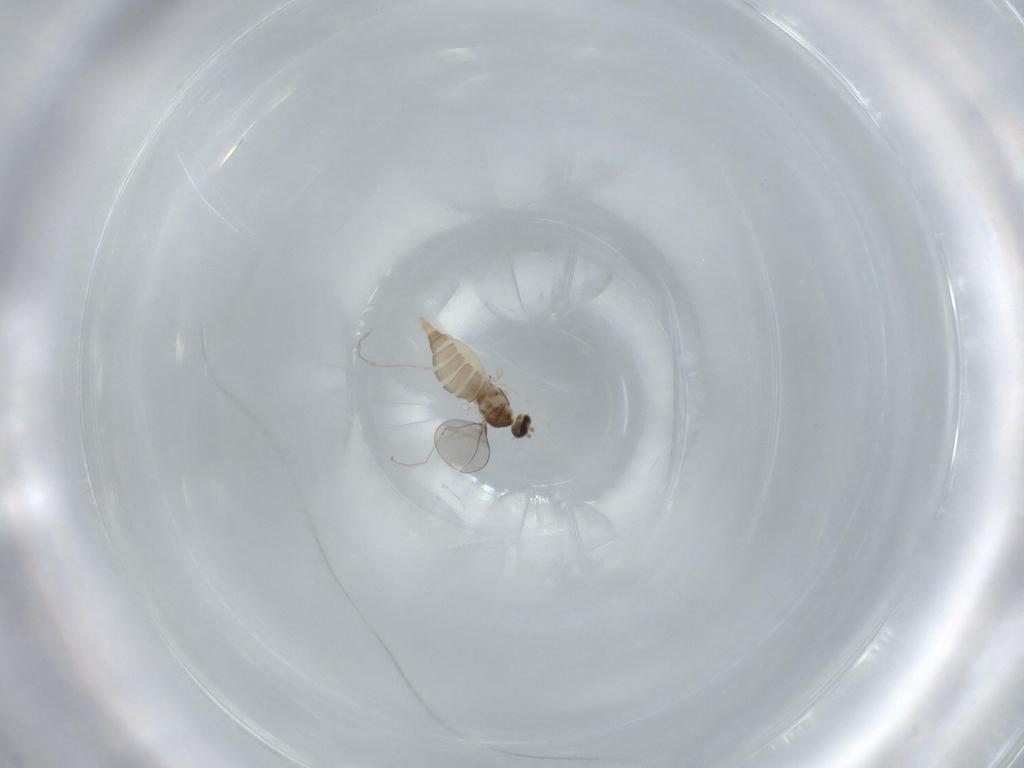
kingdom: Animalia
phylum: Arthropoda
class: Insecta
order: Diptera
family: Cecidomyiidae
